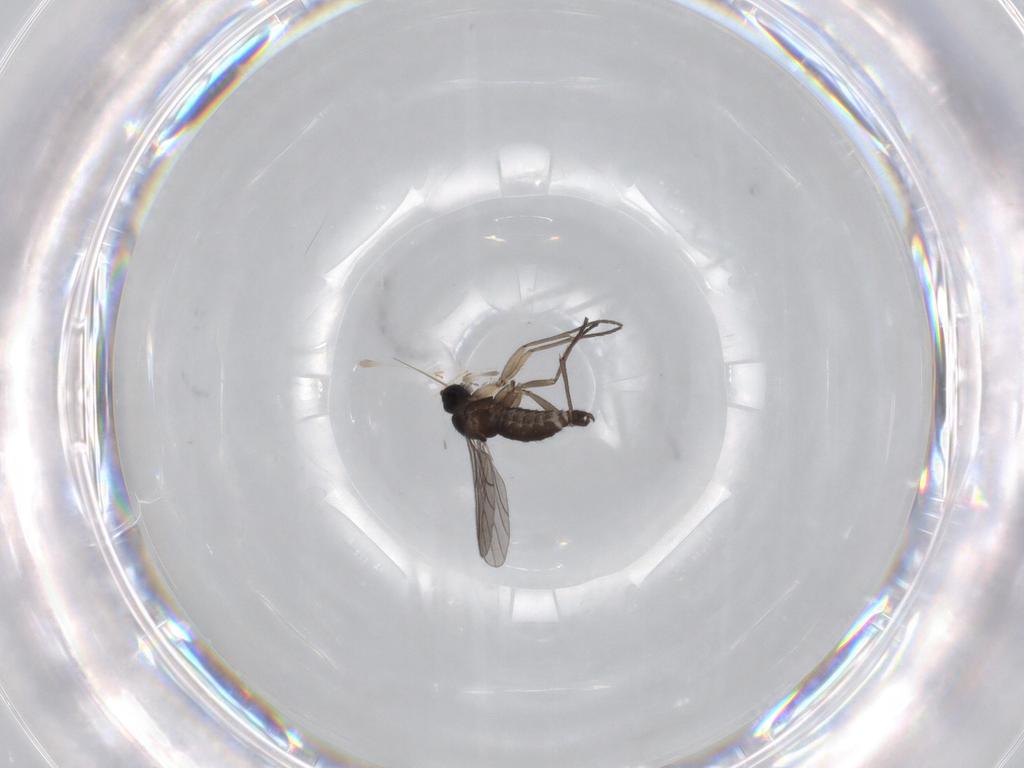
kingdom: Animalia
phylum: Arthropoda
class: Insecta
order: Diptera
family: Sciaridae
